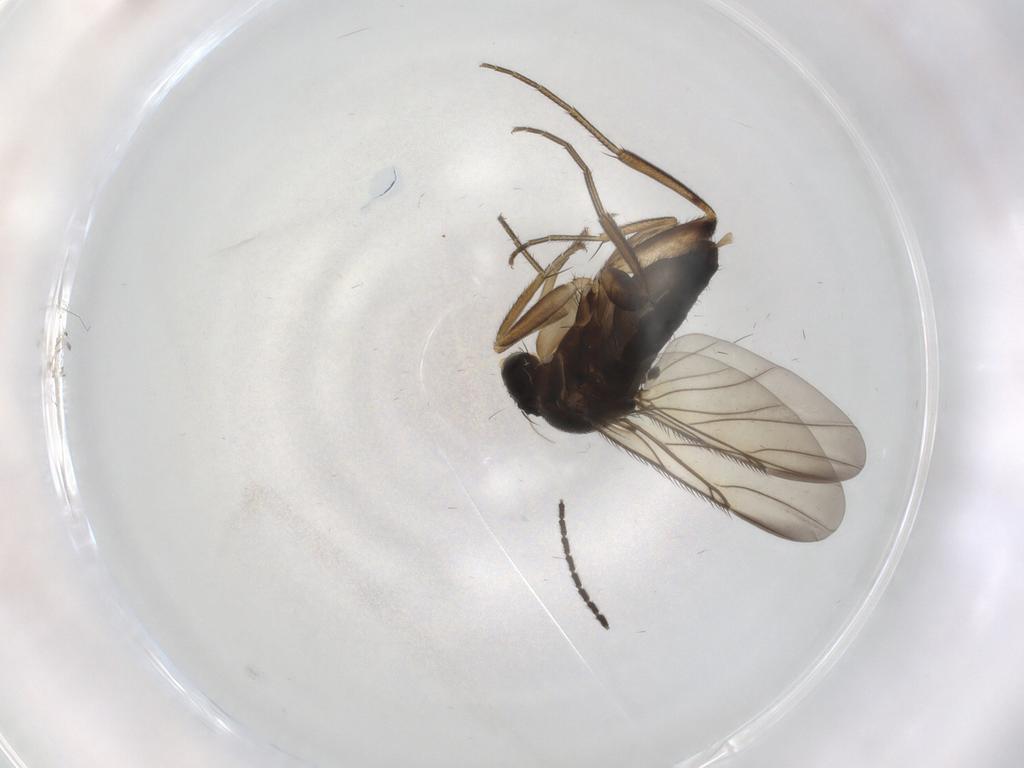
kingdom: Animalia
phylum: Arthropoda
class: Insecta
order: Diptera
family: Phoridae
